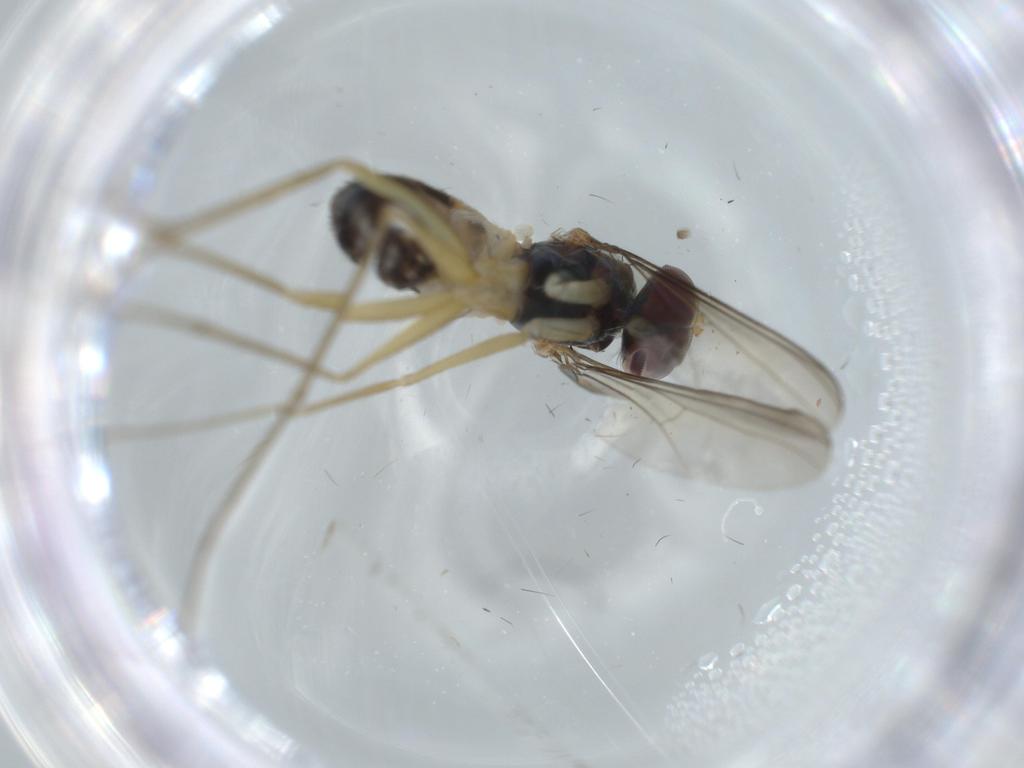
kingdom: Animalia
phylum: Arthropoda
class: Insecta
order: Diptera
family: Dolichopodidae
